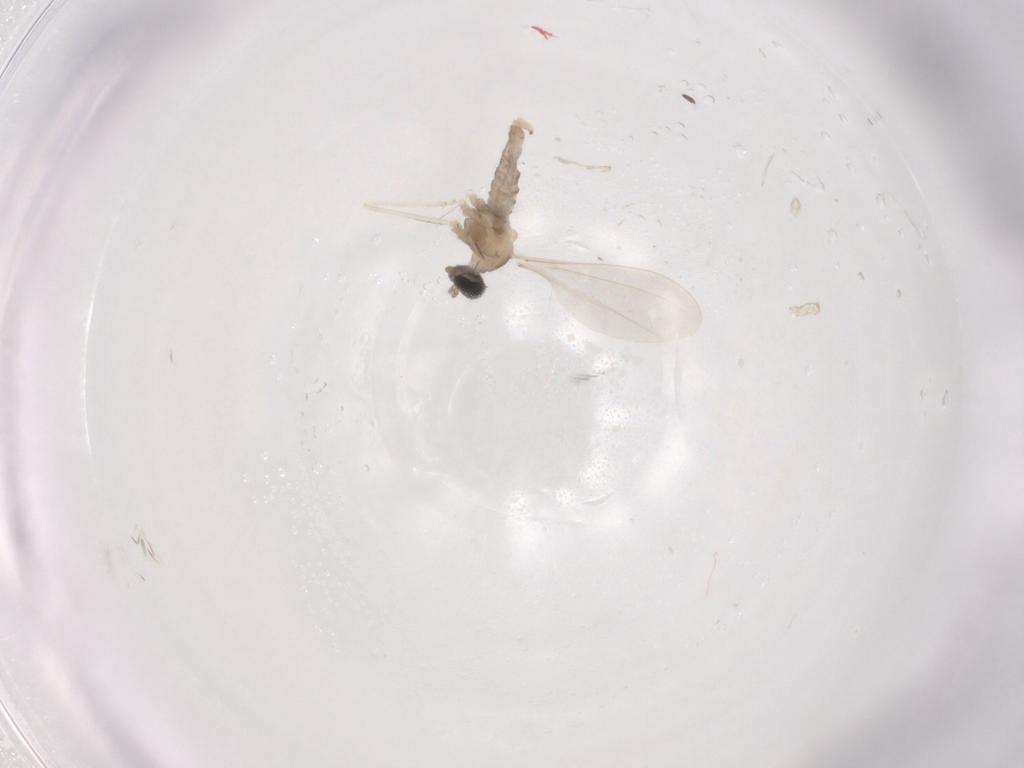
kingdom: Animalia
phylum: Arthropoda
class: Insecta
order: Diptera
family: Cecidomyiidae
